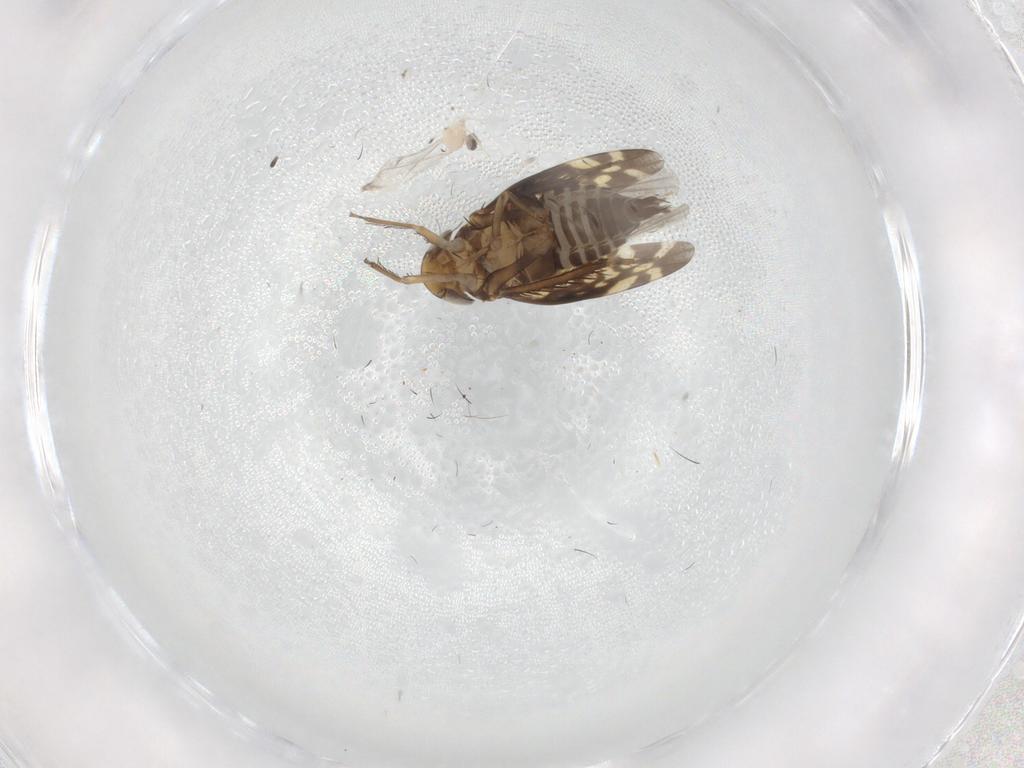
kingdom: Animalia
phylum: Arthropoda
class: Insecta
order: Hemiptera
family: Cicadellidae
